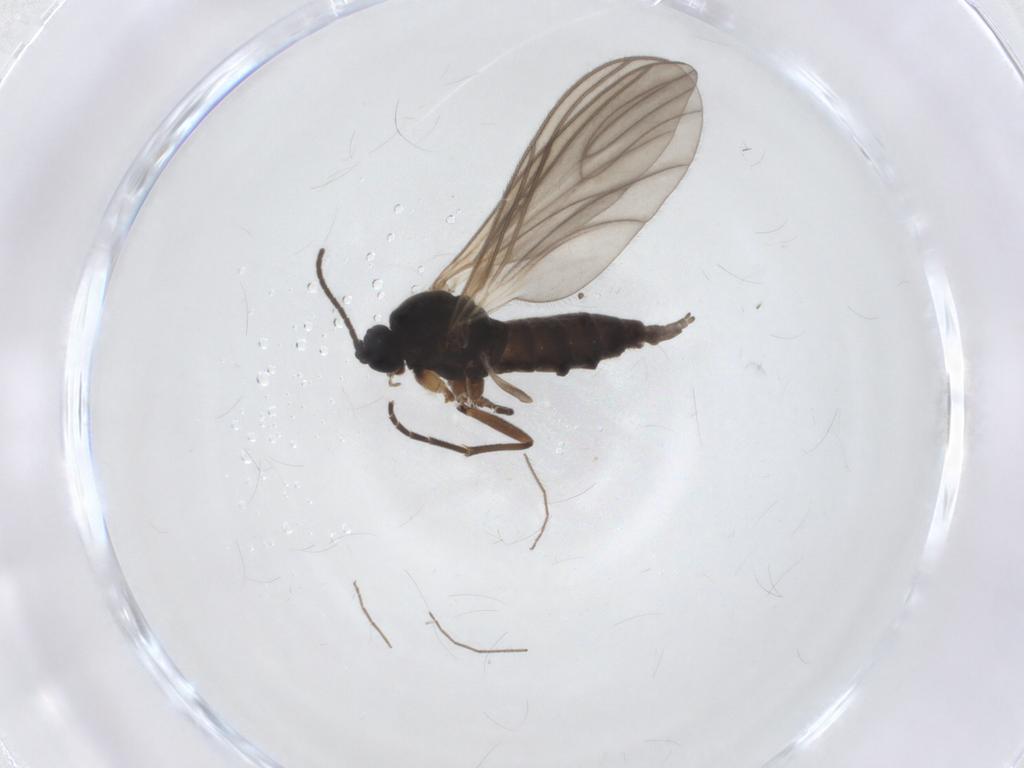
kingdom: Animalia
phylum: Arthropoda
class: Insecta
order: Diptera
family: Sciaridae
